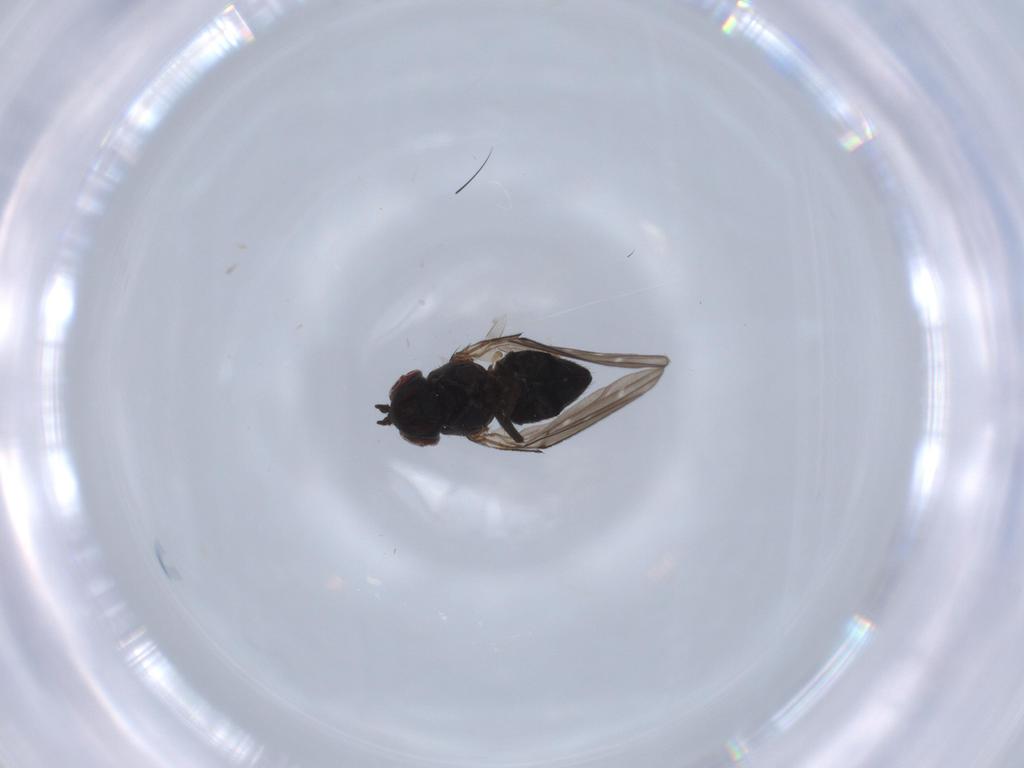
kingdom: Animalia
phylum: Arthropoda
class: Insecta
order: Diptera
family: Ephydridae
